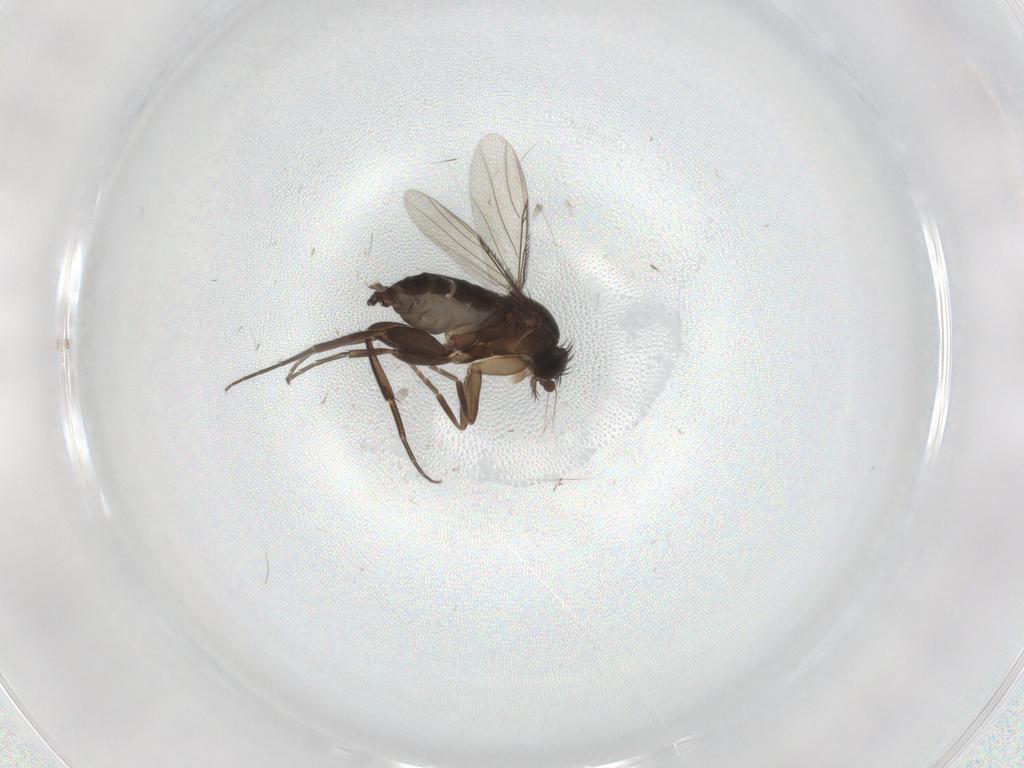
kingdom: Animalia
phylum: Arthropoda
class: Insecta
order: Diptera
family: Phoridae
